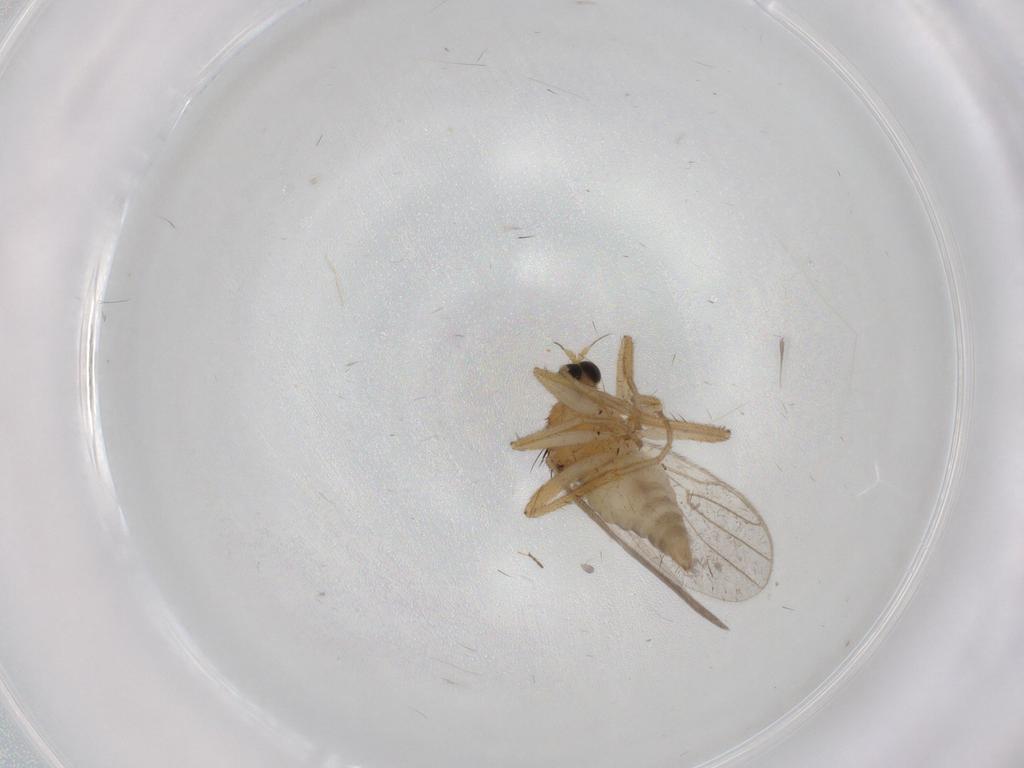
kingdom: Animalia
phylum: Arthropoda
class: Insecta
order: Diptera
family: Hybotidae
